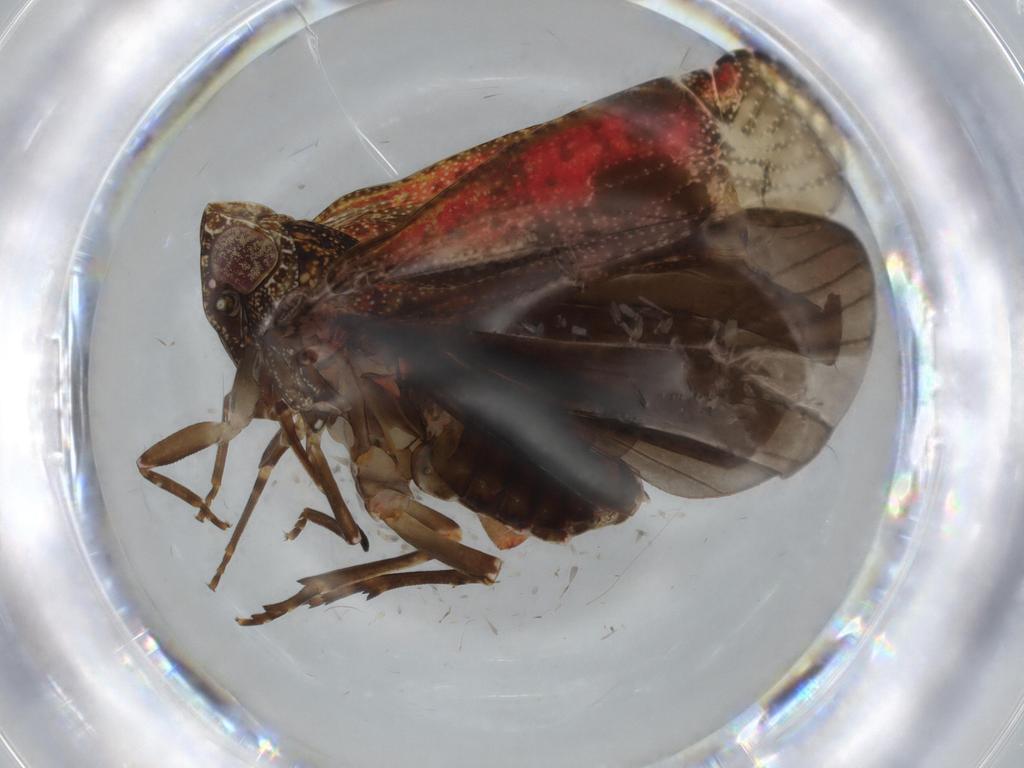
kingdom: Animalia
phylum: Arthropoda
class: Insecta
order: Hemiptera
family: Achilidae
